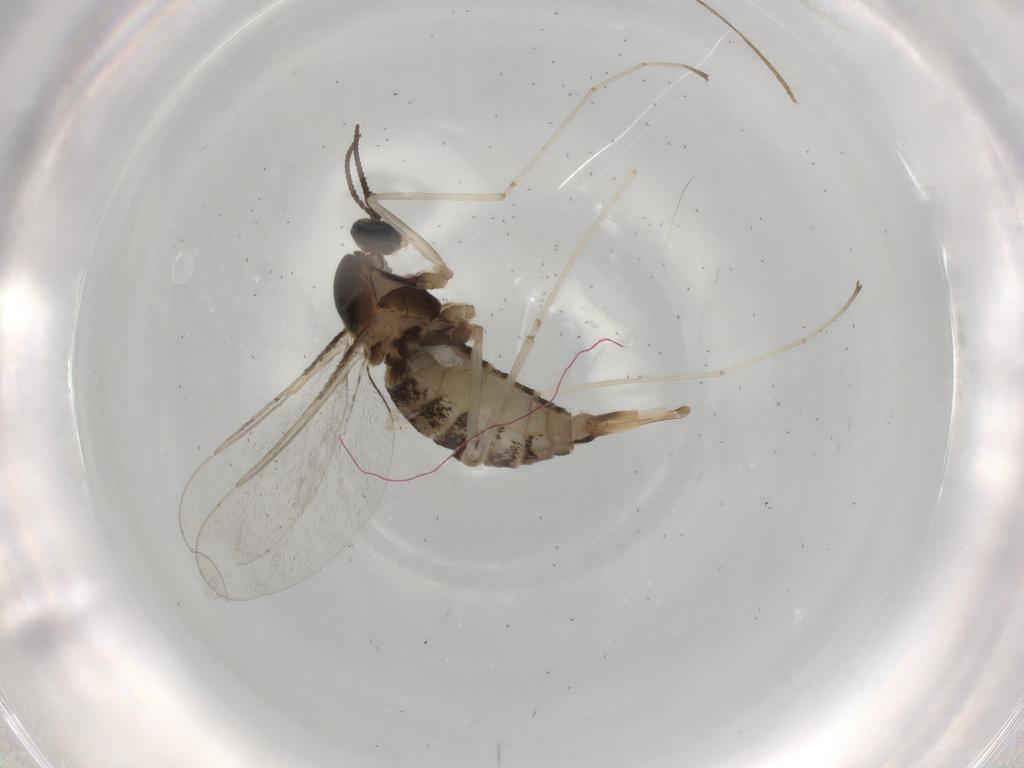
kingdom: Animalia
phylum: Arthropoda
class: Insecta
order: Diptera
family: Cecidomyiidae
